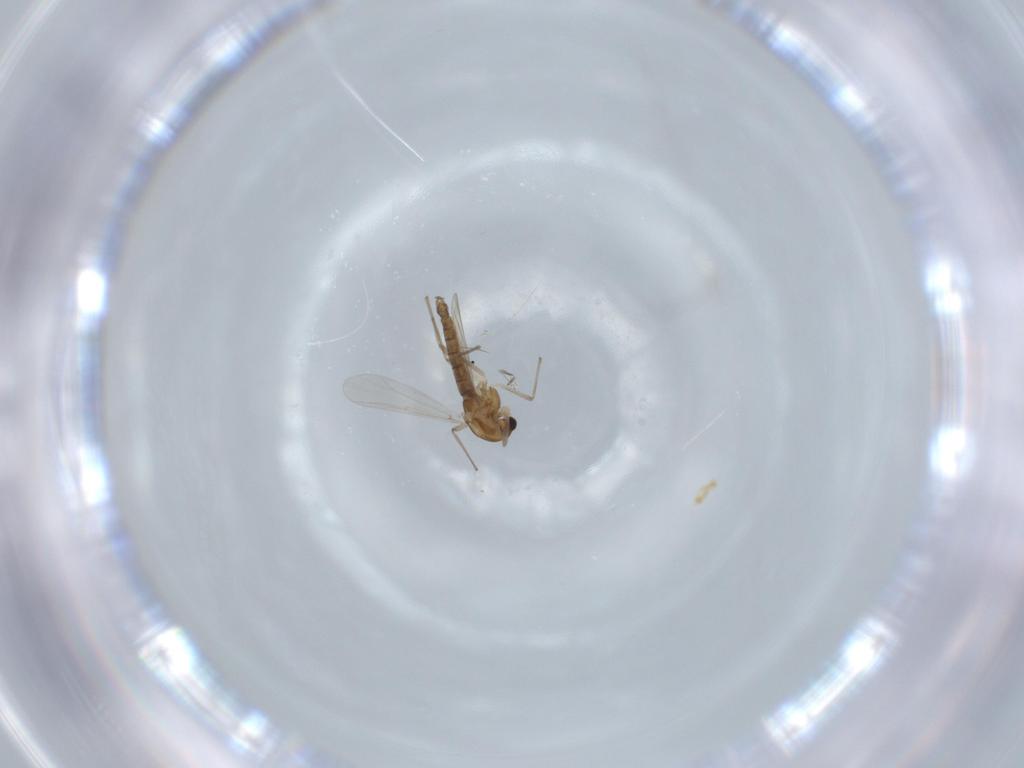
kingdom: Animalia
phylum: Arthropoda
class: Insecta
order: Diptera
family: Chironomidae
